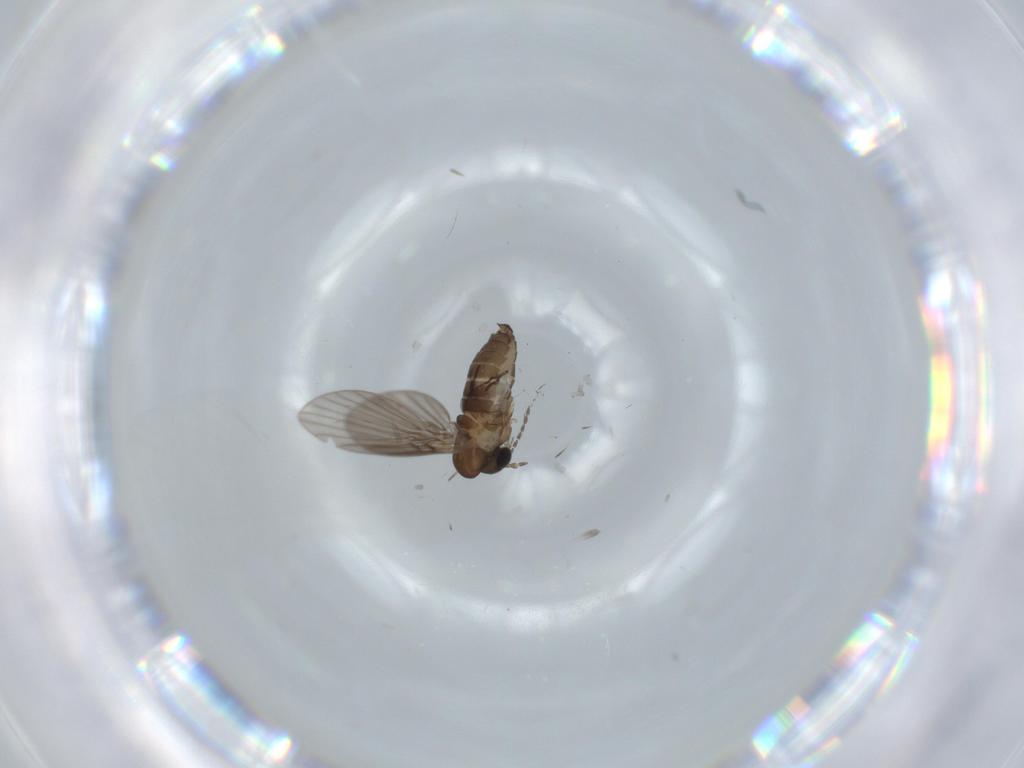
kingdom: Animalia
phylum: Arthropoda
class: Insecta
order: Diptera
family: Psychodidae
